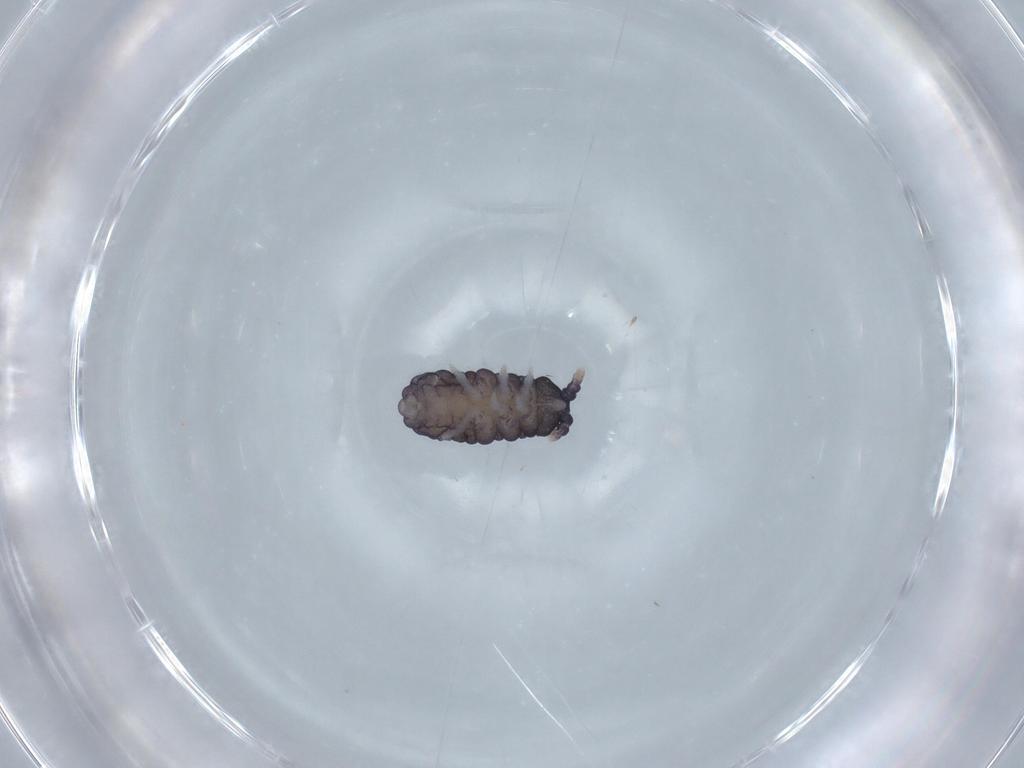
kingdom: Animalia
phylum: Arthropoda
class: Collembola
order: Poduromorpha
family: Neanuridae
